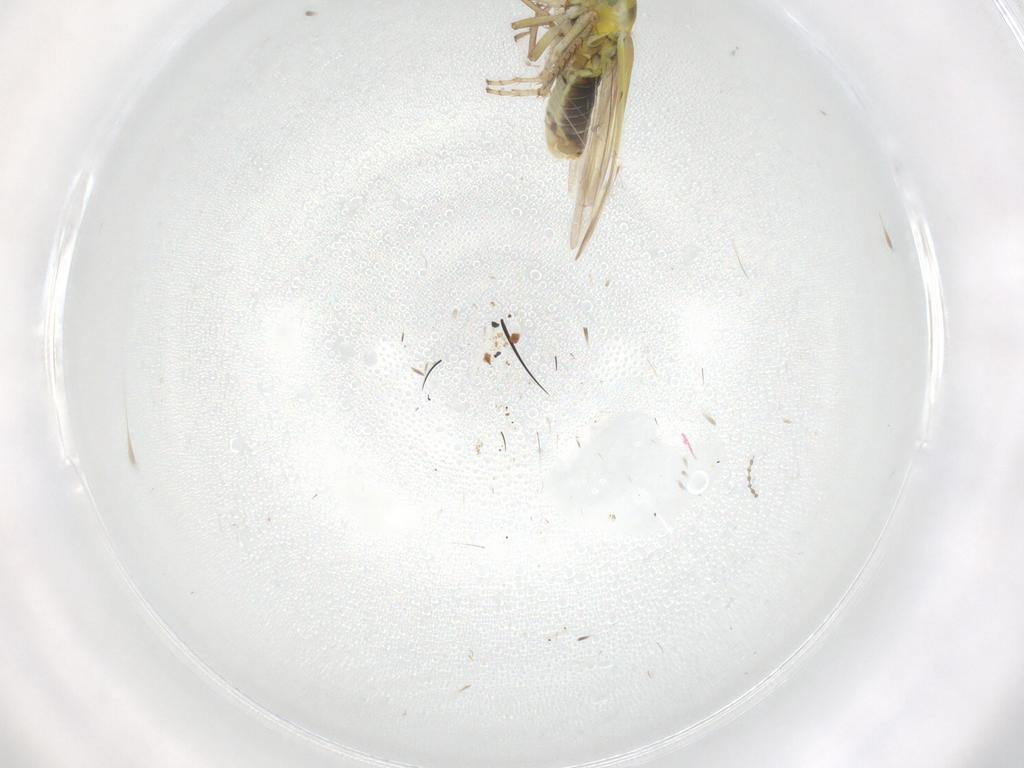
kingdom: Animalia
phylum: Arthropoda
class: Insecta
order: Hemiptera
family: Cicadellidae
